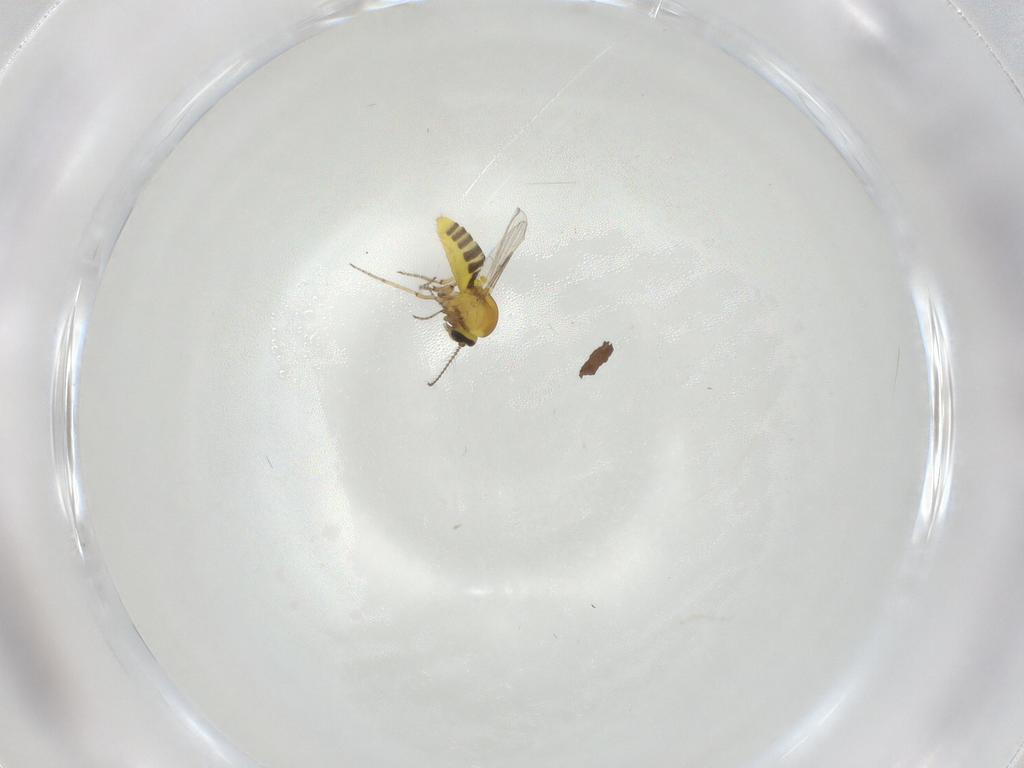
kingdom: Animalia
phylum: Arthropoda
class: Insecta
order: Diptera
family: Ceratopogonidae
